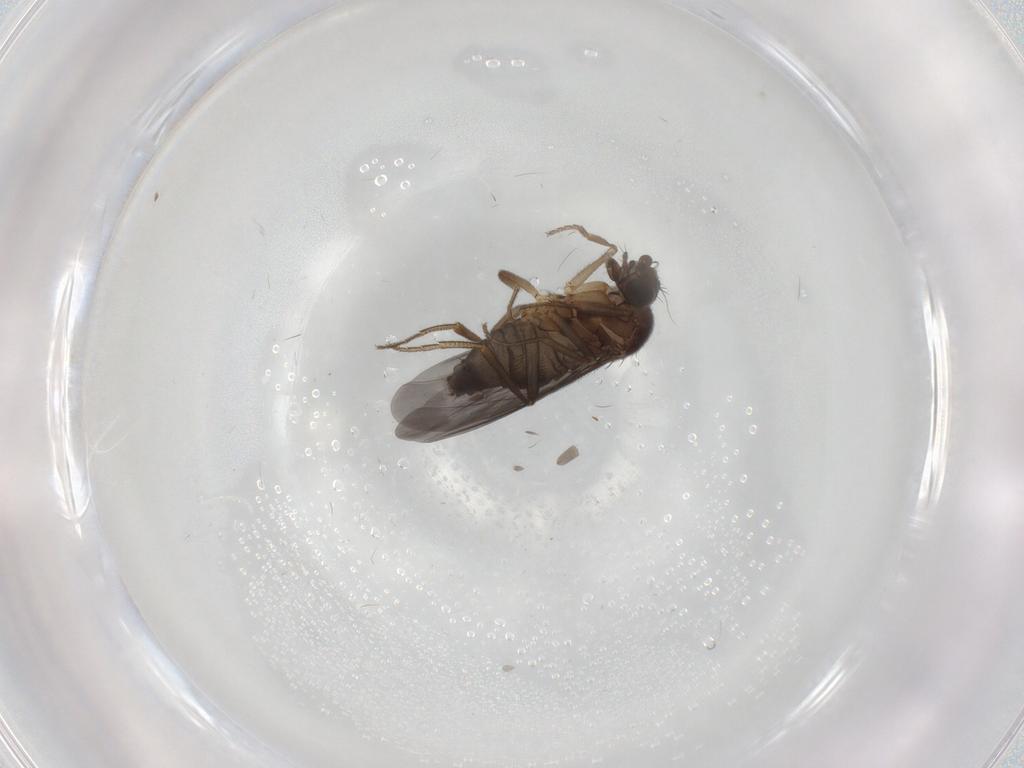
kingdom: Animalia
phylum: Arthropoda
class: Insecta
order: Diptera
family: Phoridae
